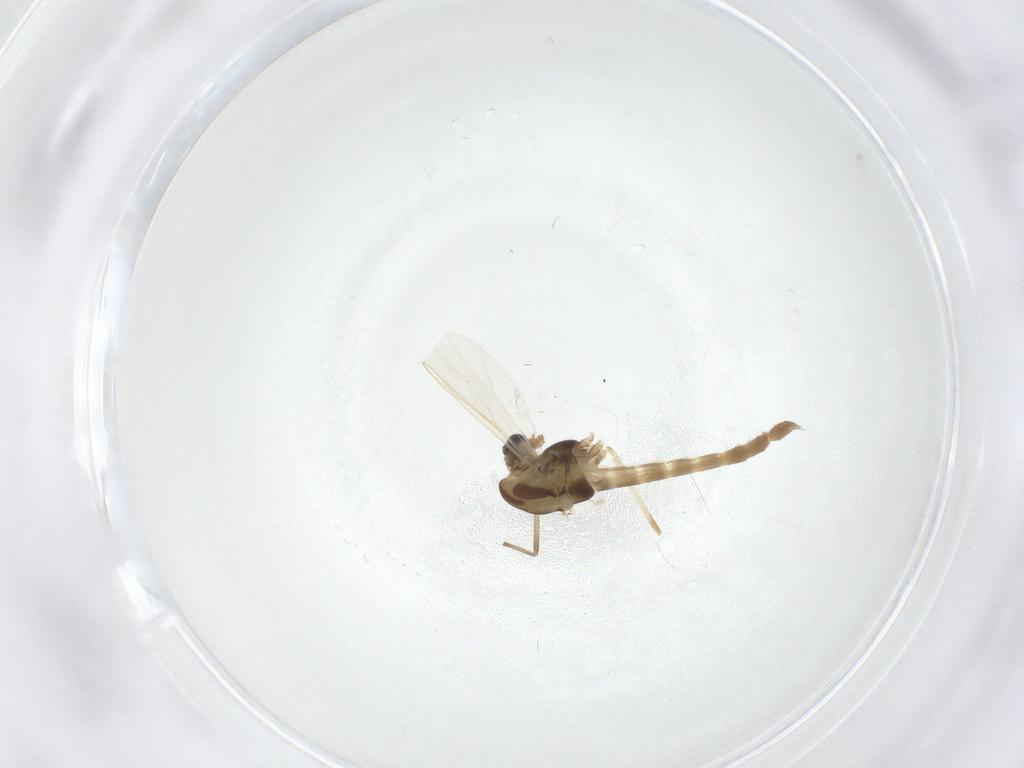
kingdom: Animalia
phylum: Arthropoda
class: Insecta
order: Diptera
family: Chironomidae
